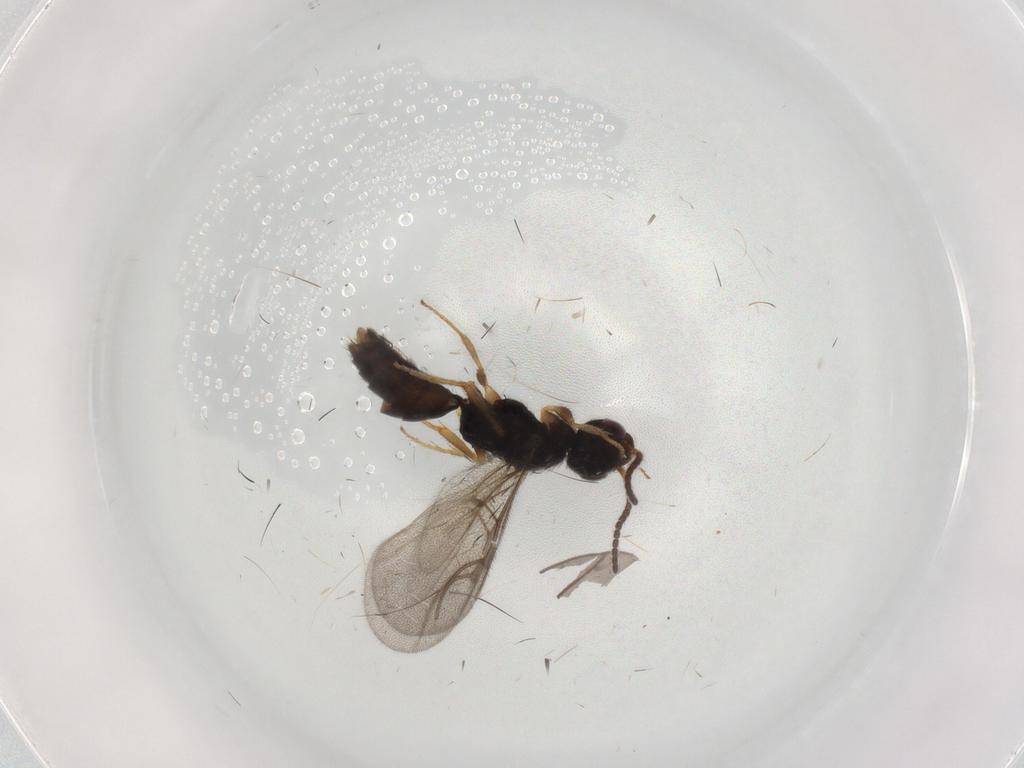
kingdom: Animalia
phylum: Arthropoda
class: Insecta
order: Hymenoptera
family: Bethylidae
